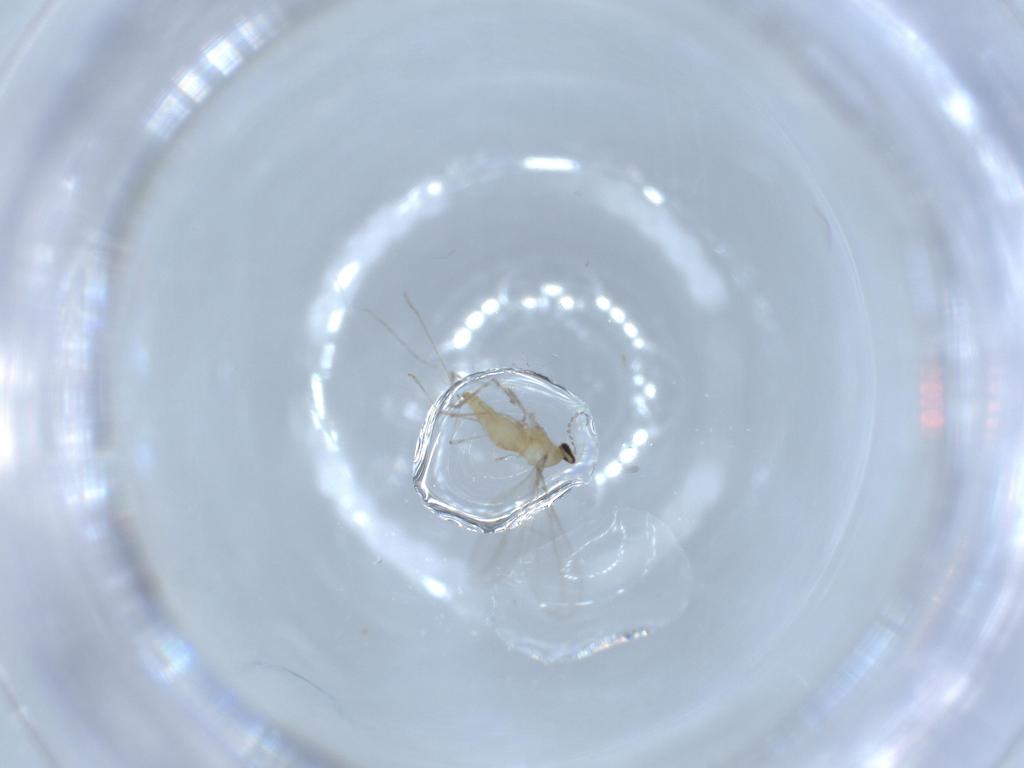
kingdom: Animalia
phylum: Arthropoda
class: Insecta
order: Diptera
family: Cecidomyiidae
